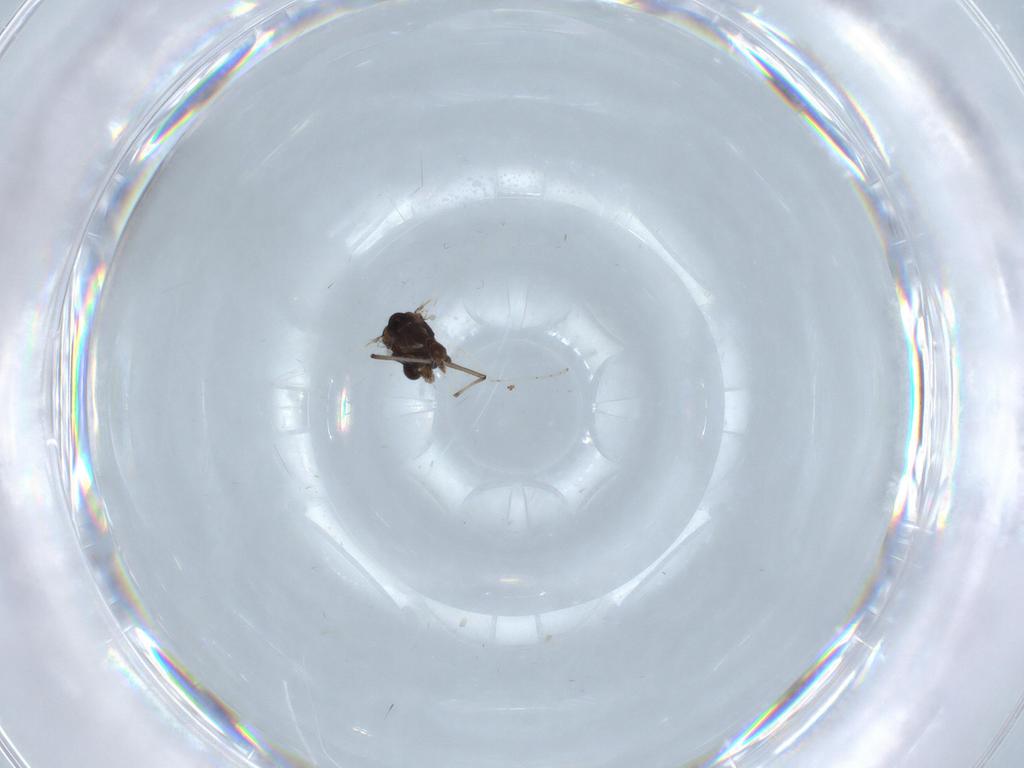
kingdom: Animalia
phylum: Arthropoda
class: Insecta
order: Diptera
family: Chironomidae
